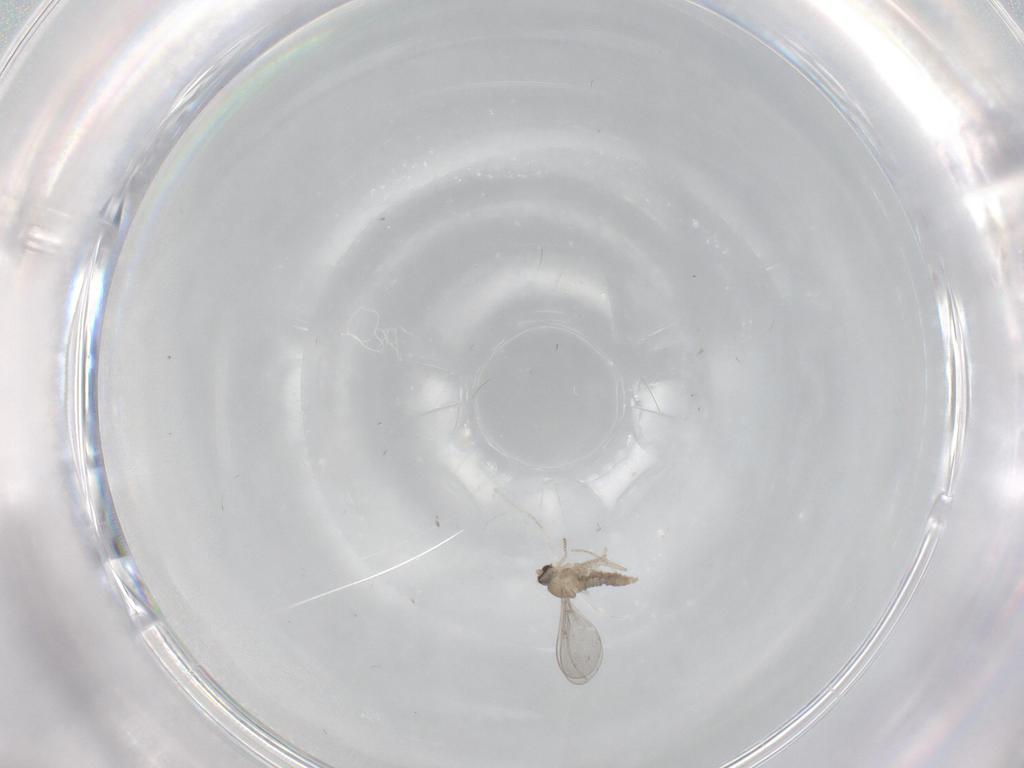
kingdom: Animalia
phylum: Arthropoda
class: Insecta
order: Diptera
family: Cecidomyiidae
